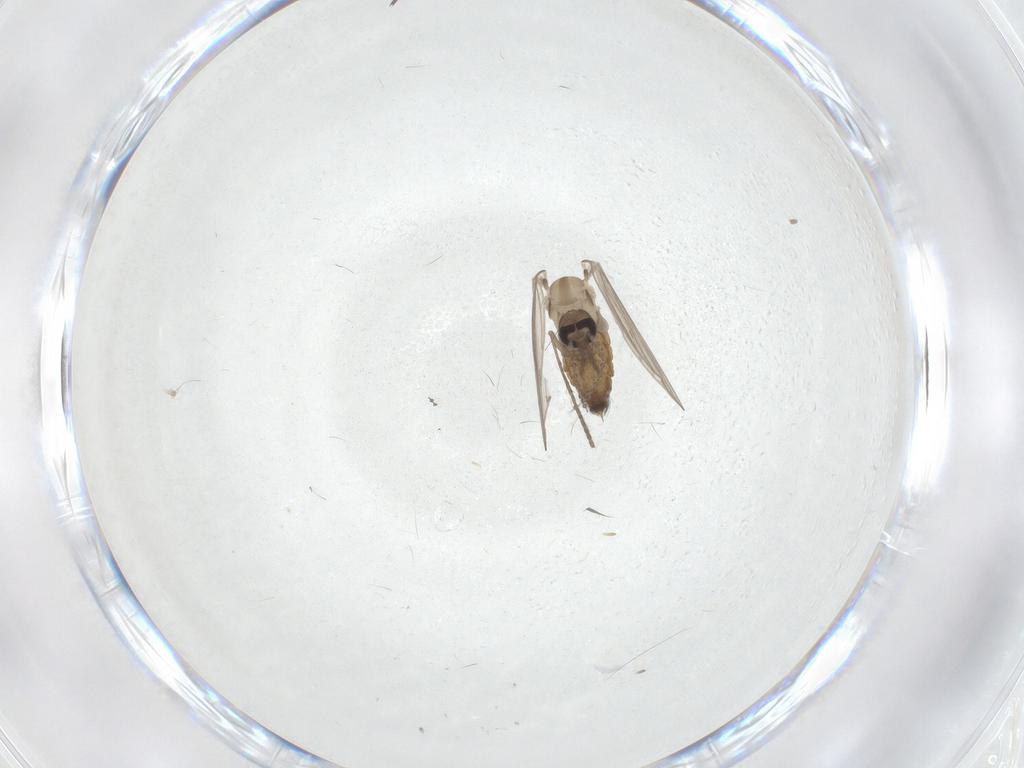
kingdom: Animalia
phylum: Arthropoda
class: Insecta
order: Diptera
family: Psychodidae
